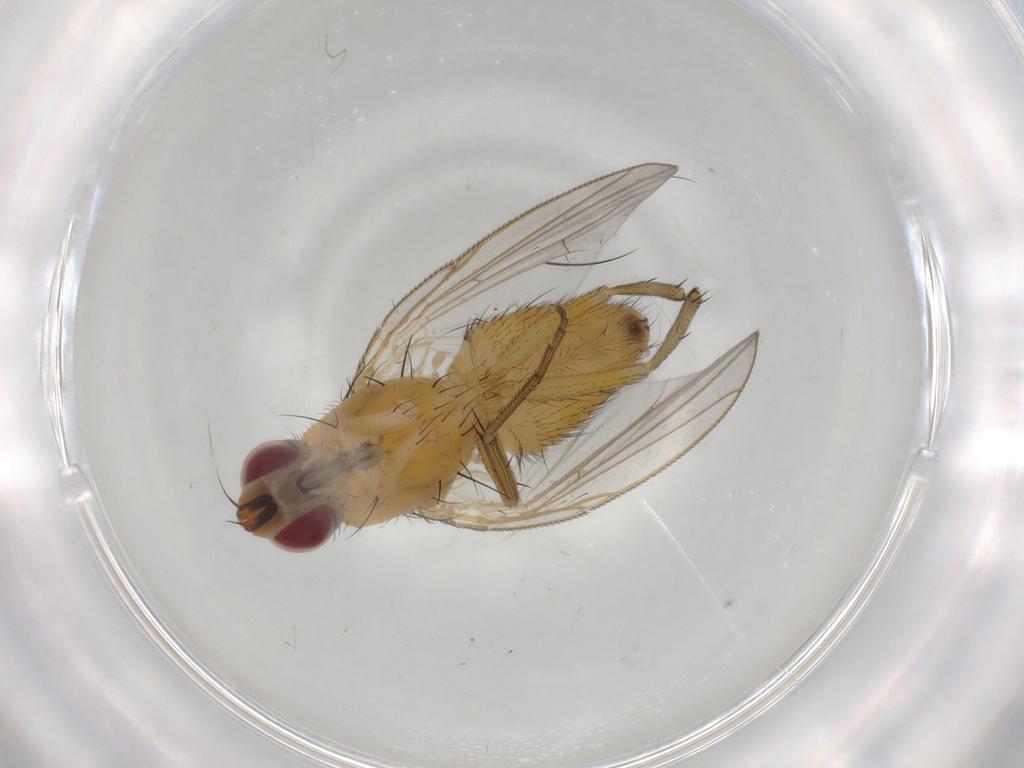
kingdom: Animalia
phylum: Arthropoda
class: Insecta
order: Diptera
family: Muscidae
